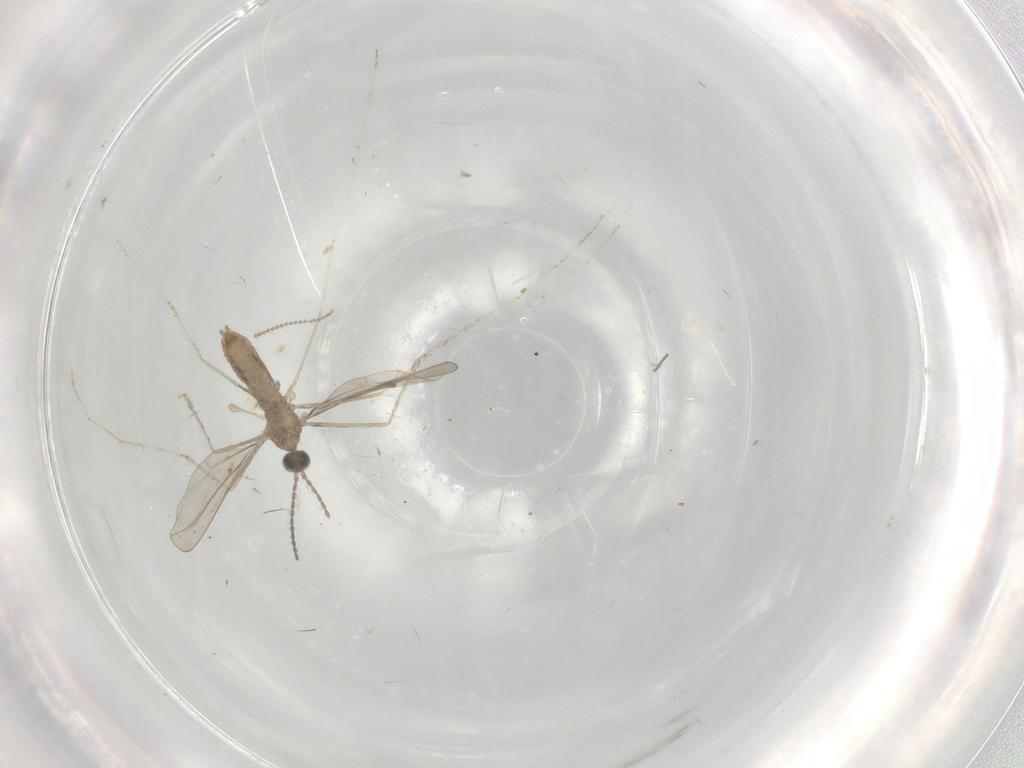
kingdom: Animalia
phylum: Arthropoda
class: Insecta
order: Diptera
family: Cecidomyiidae
